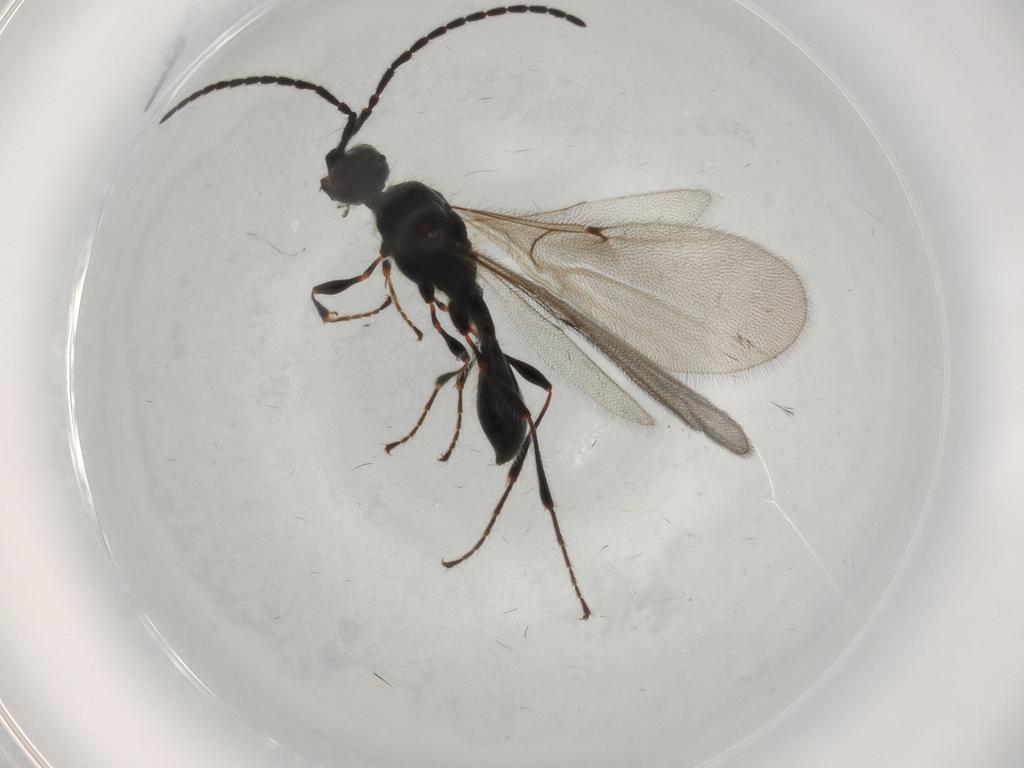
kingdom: Animalia
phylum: Arthropoda
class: Insecta
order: Hymenoptera
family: Diapriidae
